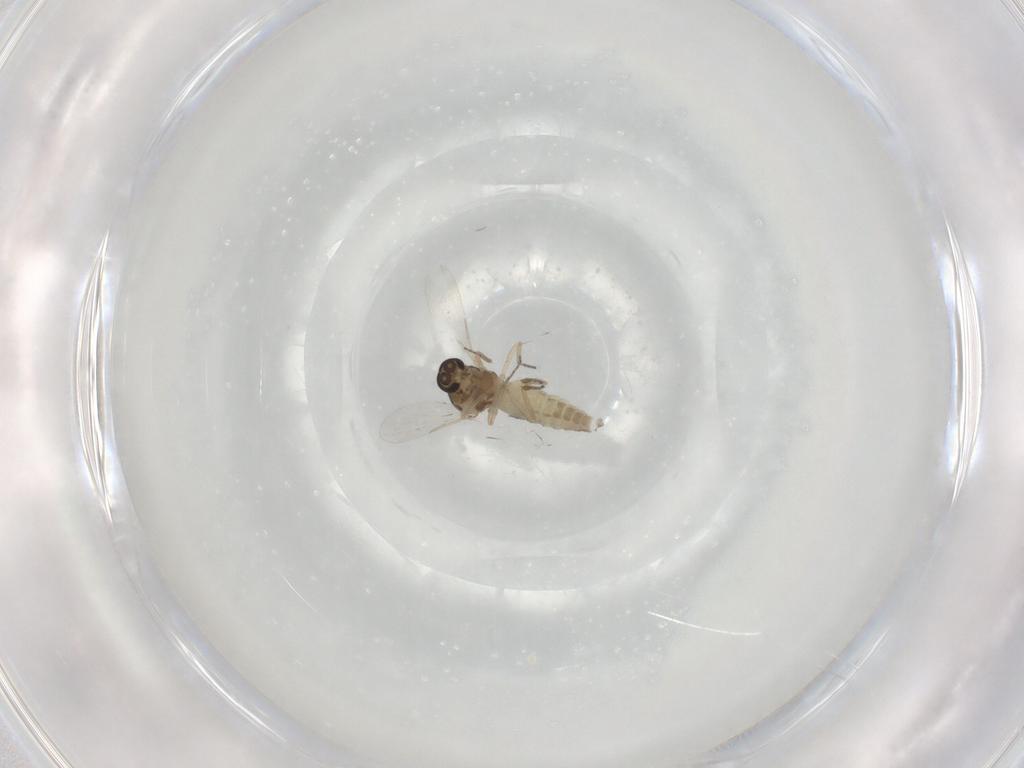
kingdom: Animalia
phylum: Arthropoda
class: Insecta
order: Diptera
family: Ceratopogonidae
